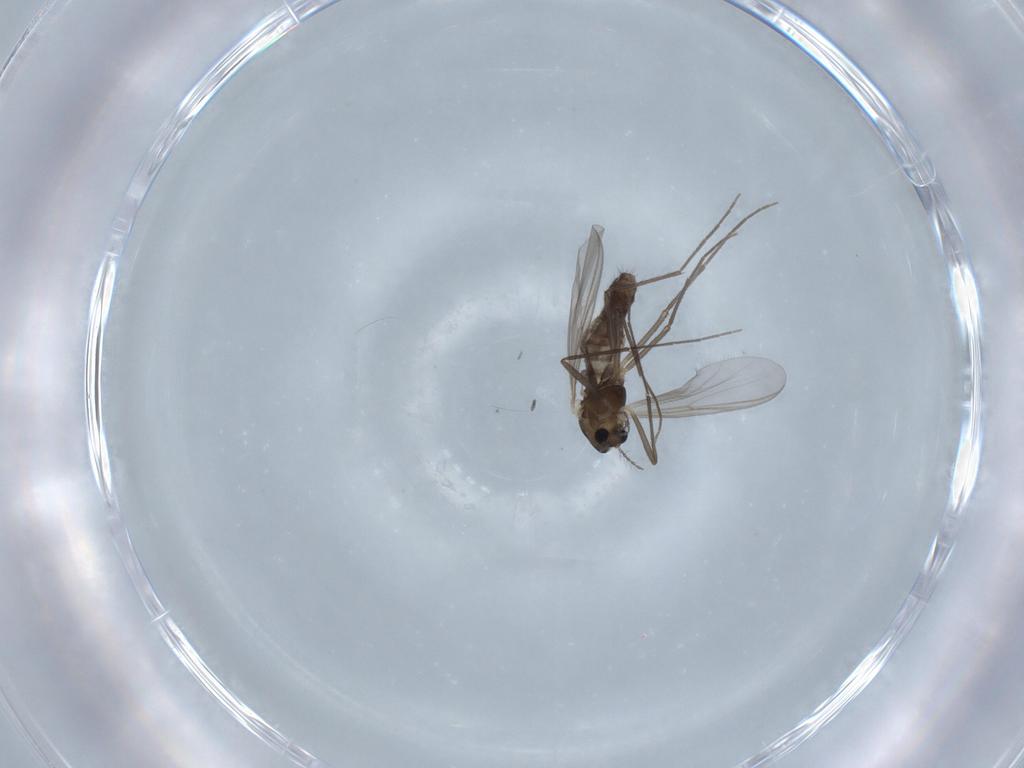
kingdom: Animalia
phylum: Arthropoda
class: Insecta
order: Diptera
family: Chironomidae
